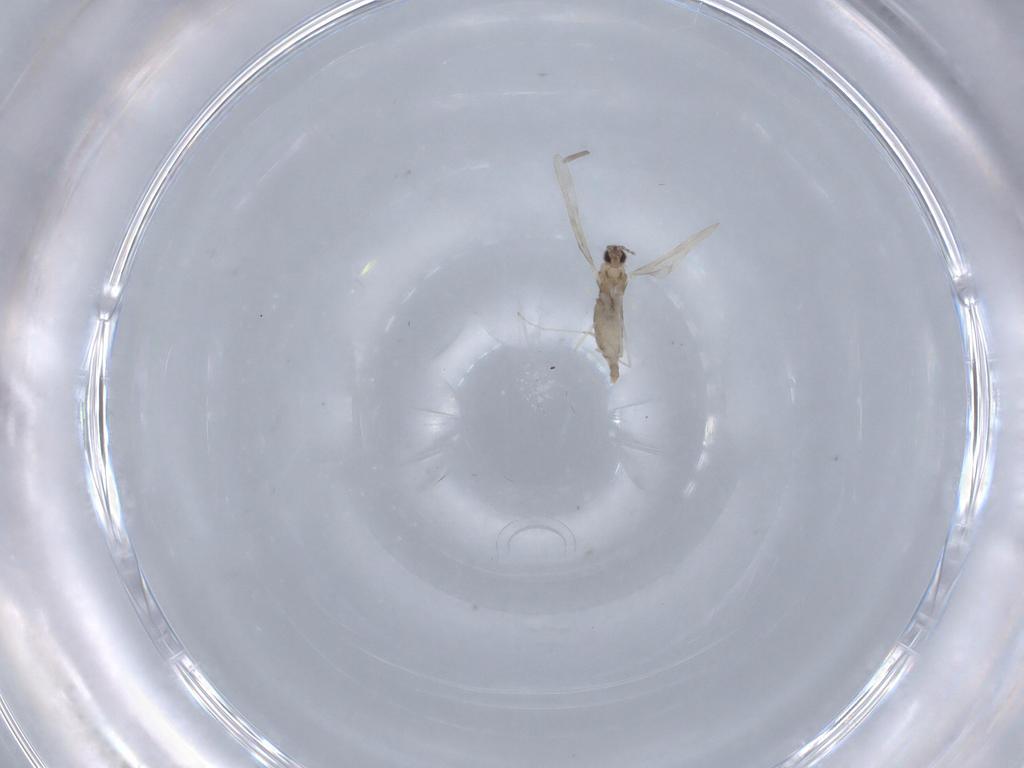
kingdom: Animalia
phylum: Arthropoda
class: Insecta
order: Diptera
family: Cecidomyiidae
